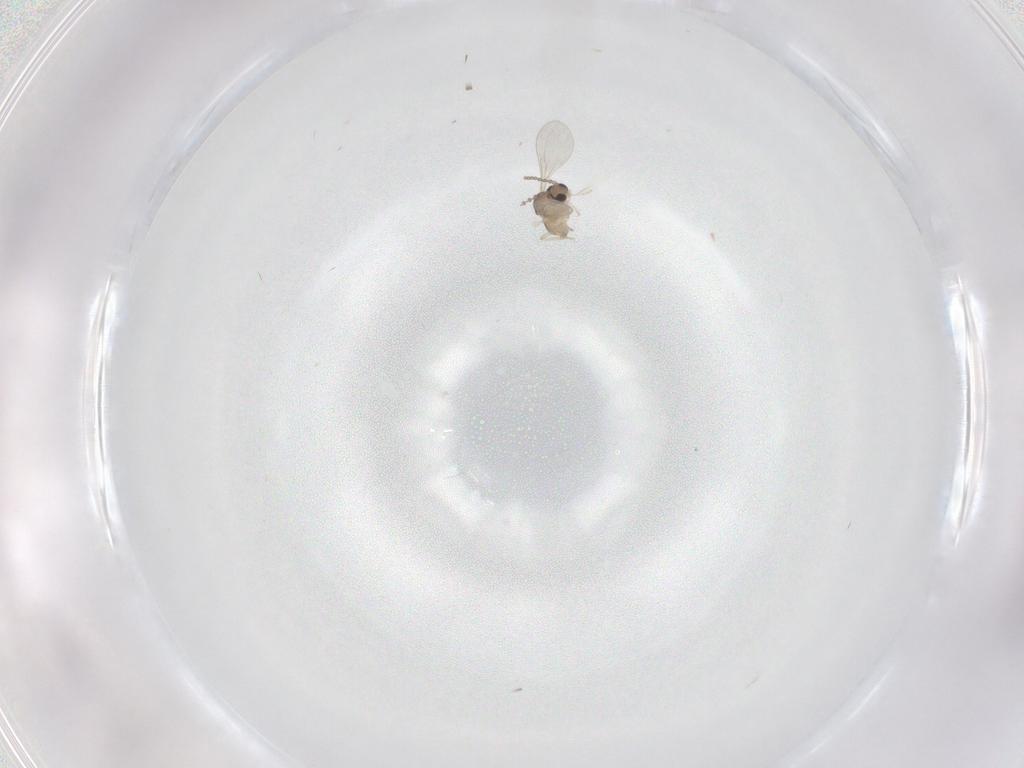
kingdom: Animalia
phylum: Arthropoda
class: Insecta
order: Diptera
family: Cecidomyiidae
